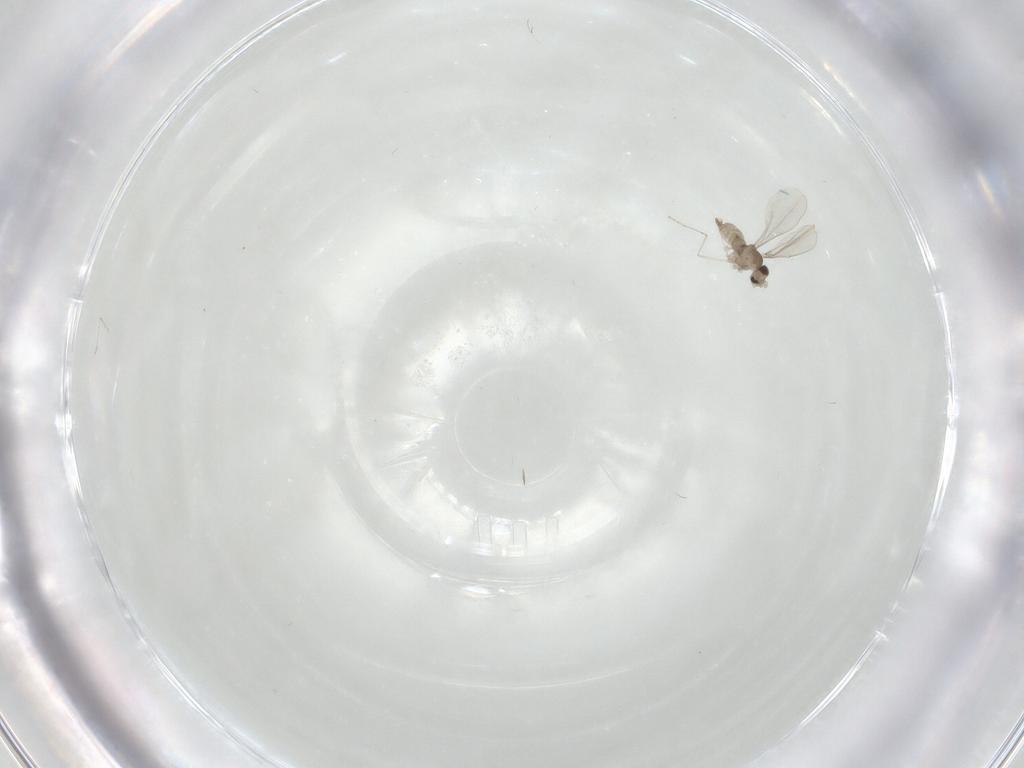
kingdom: Animalia
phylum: Arthropoda
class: Insecta
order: Diptera
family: Cecidomyiidae
